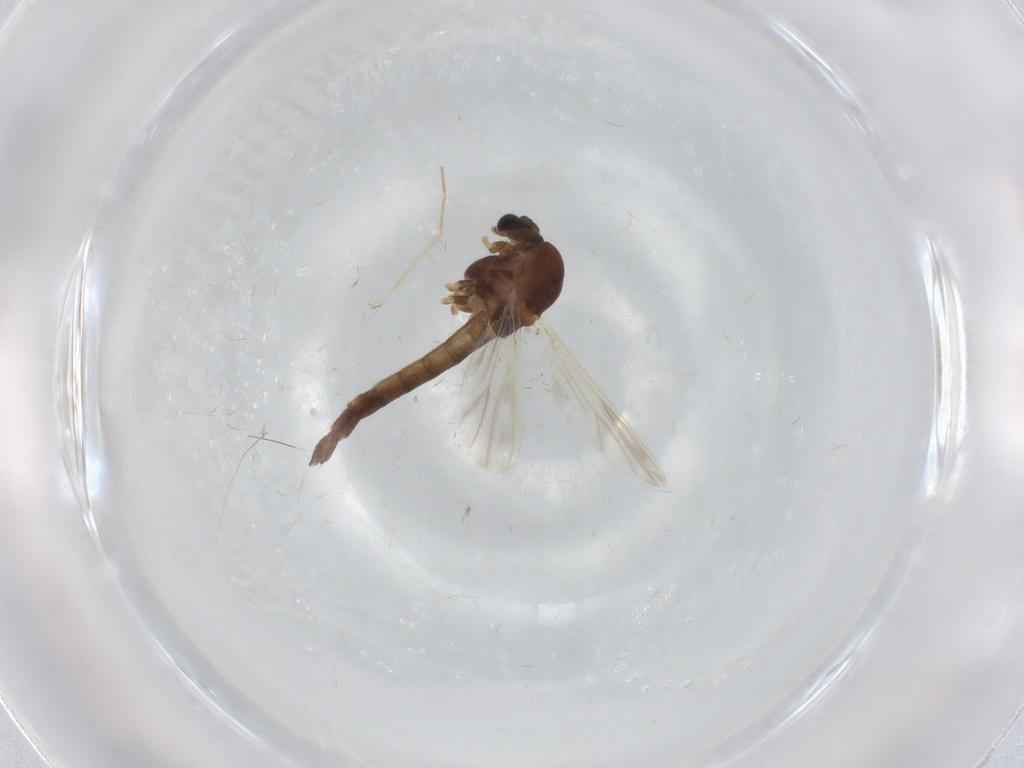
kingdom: Animalia
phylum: Arthropoda
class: Insecta
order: Diptera
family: Chironomidae
